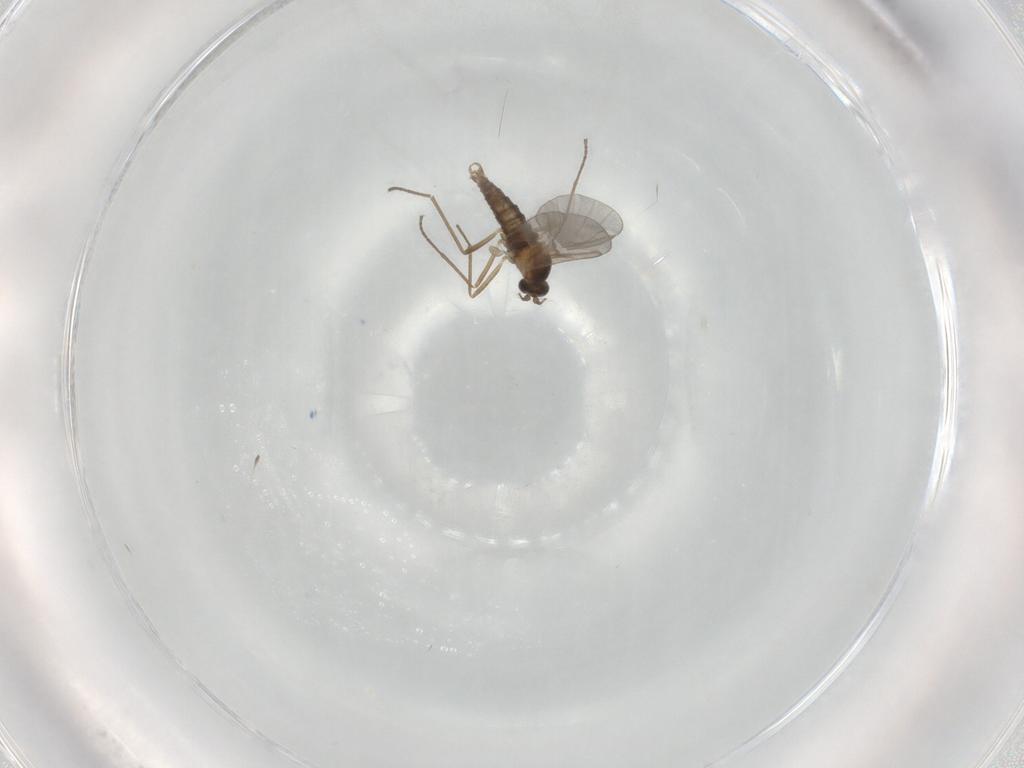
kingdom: Animalia
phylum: Arthropoda
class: Insecta
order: Diptera
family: Cecidomyiidae
